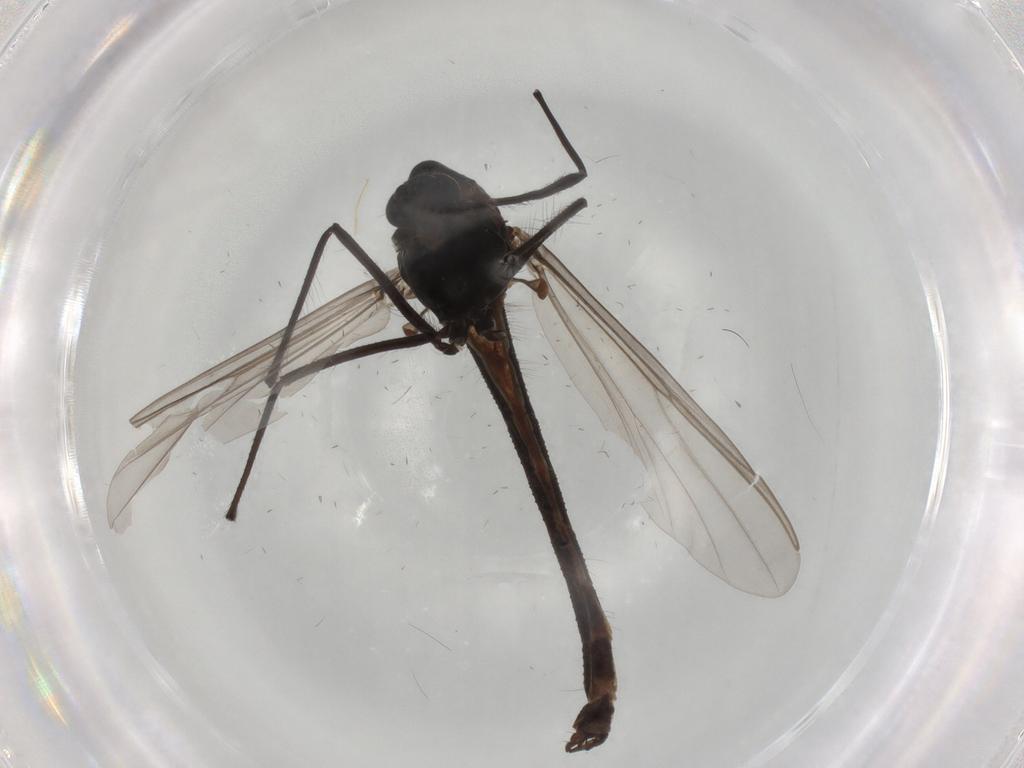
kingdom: Animalia
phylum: Arthropoda
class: Insecta
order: Diptera
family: Chironomidae
